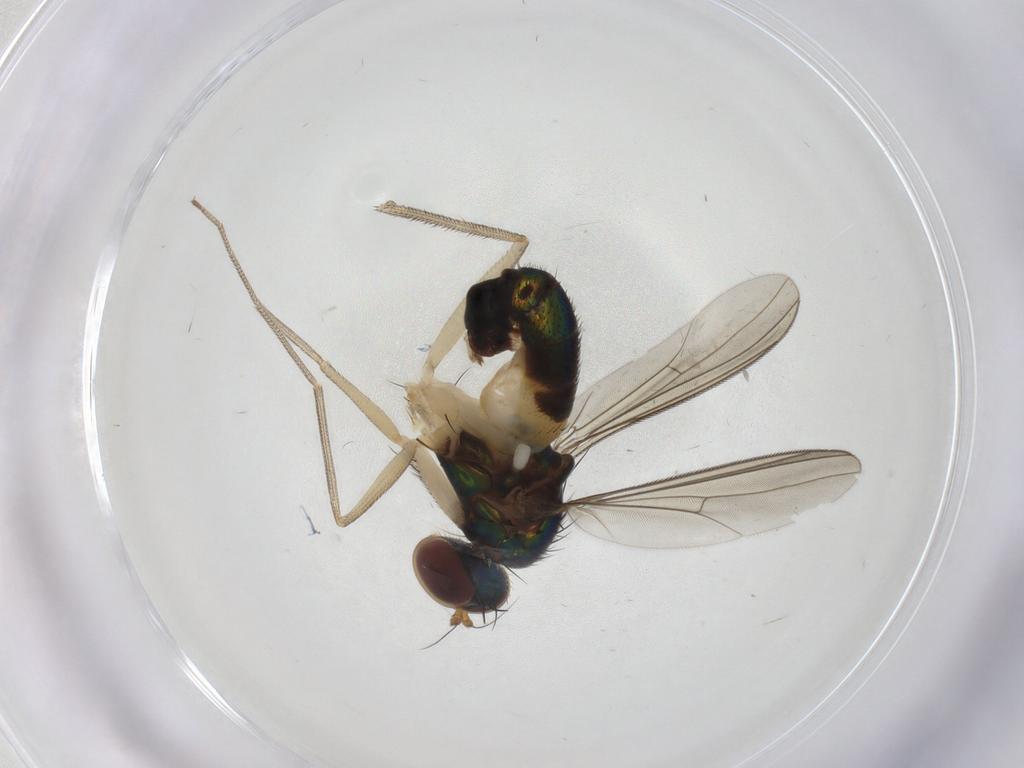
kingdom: Animalia
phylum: Arthropoda
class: Insecta
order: Diptera
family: Dolichopodidae
